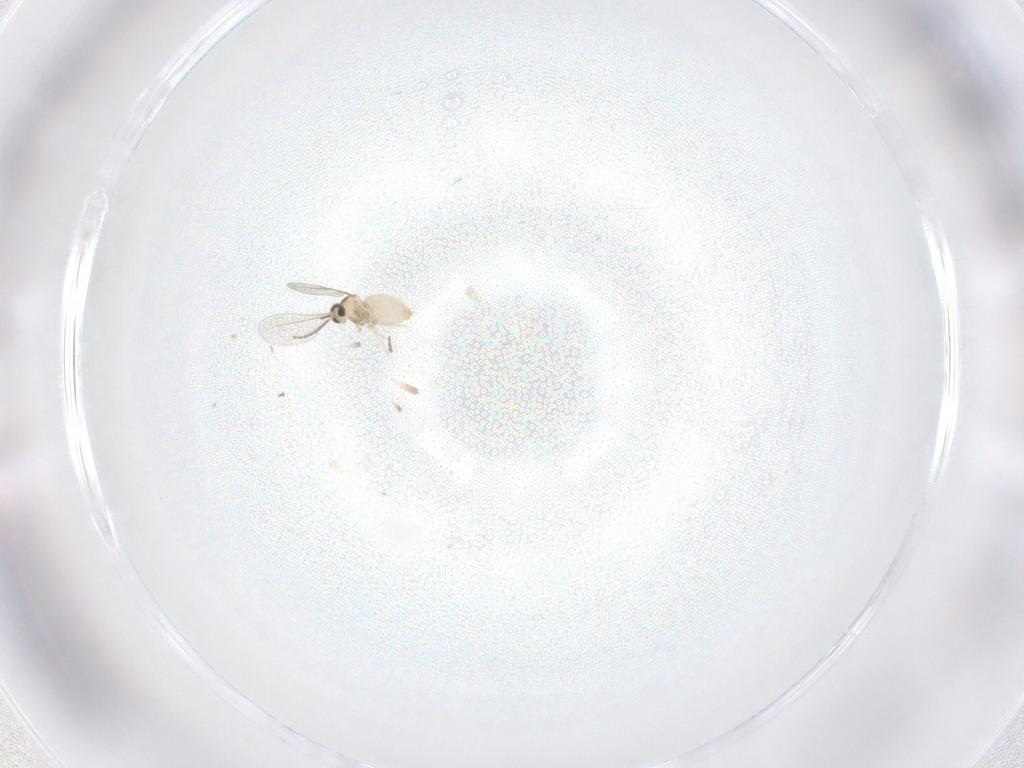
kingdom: Animalia
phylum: Arthropoda
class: Insecta
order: Diptera
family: Cecidomyiidae
